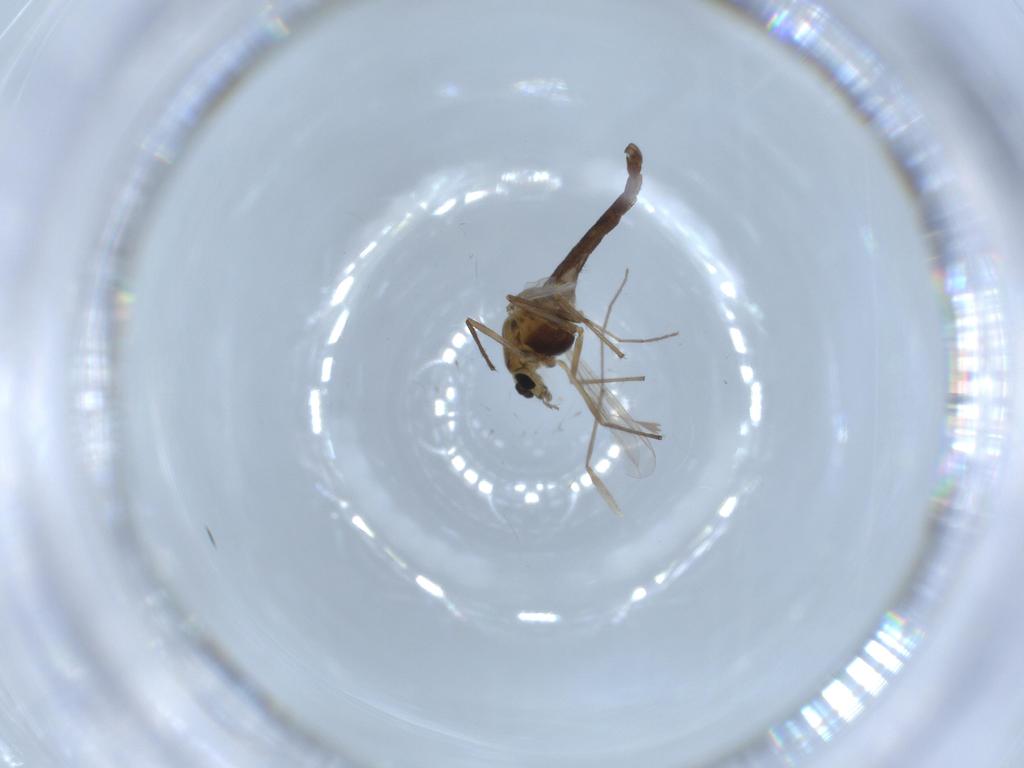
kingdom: Animalia
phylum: Arthropoda
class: Insecta
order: Diptera
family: Chironomidae
